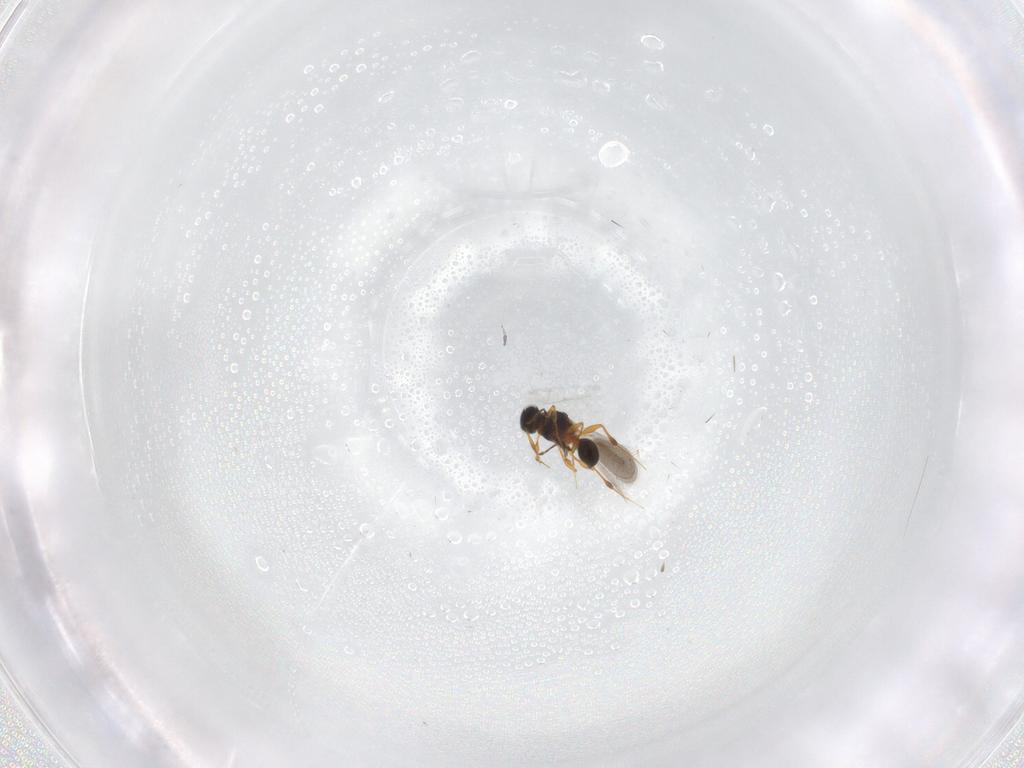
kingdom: Animalia
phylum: Arthropoda
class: Insecta
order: Hymenoptera
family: Platygastridae
